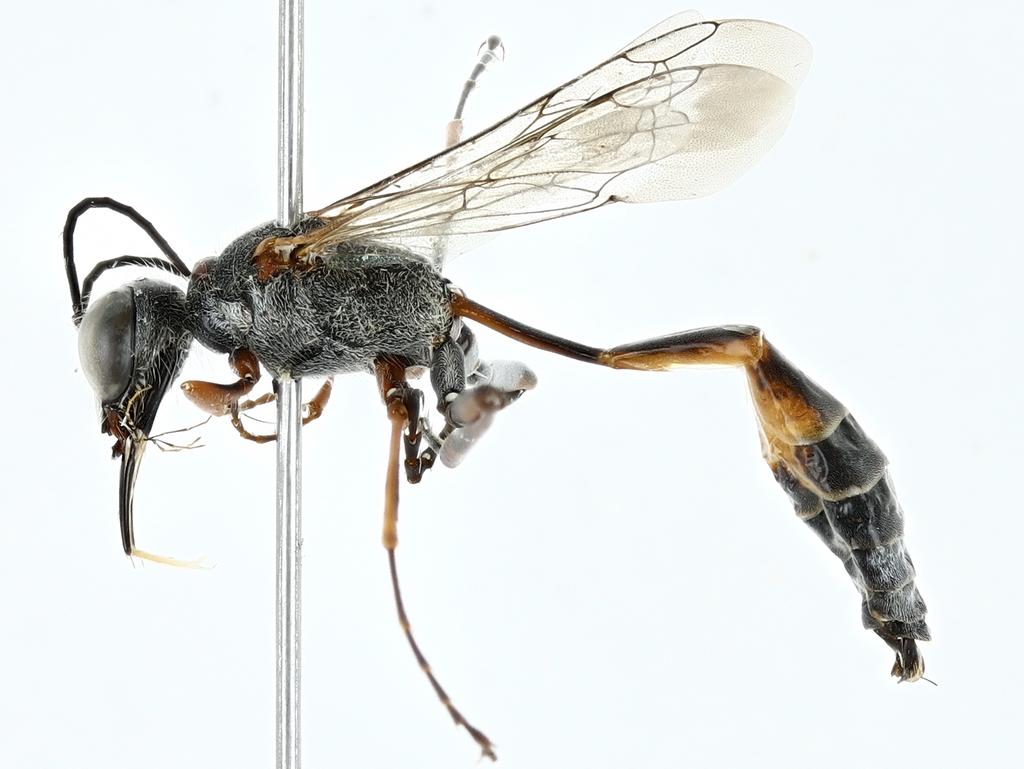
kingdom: Animalia
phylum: Arthropoda
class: Insecta
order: Hymenoptera
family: Sphecidae
